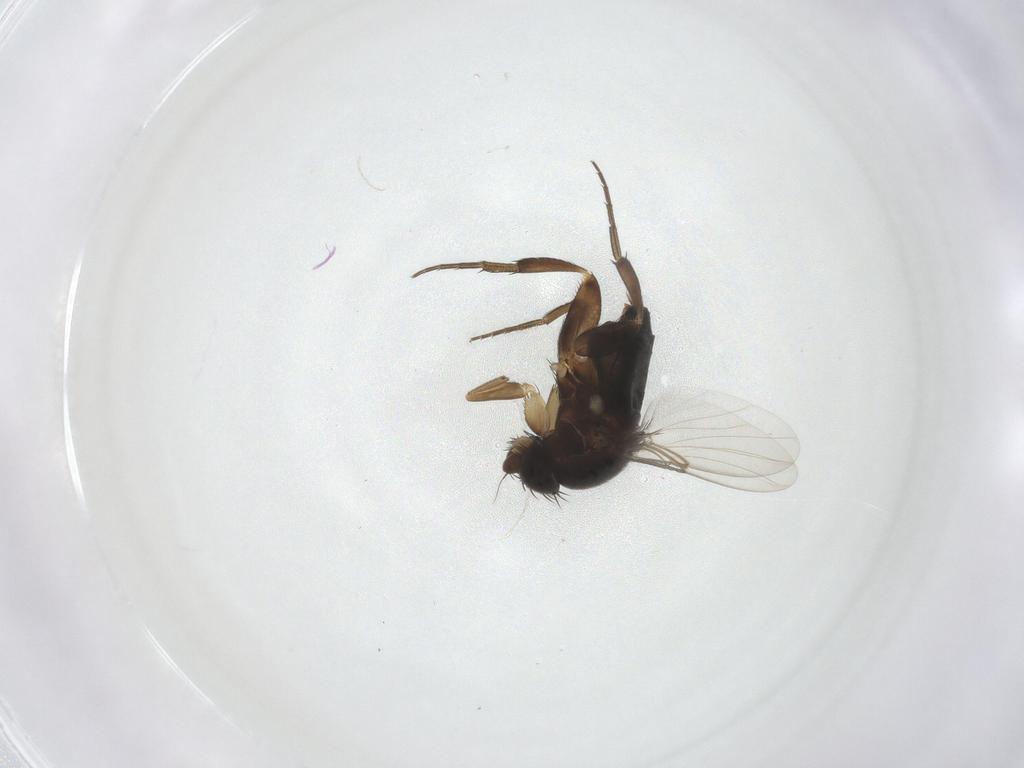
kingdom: Animalia
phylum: Arthropoda
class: Insecta
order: Diptera
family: Phoridae
